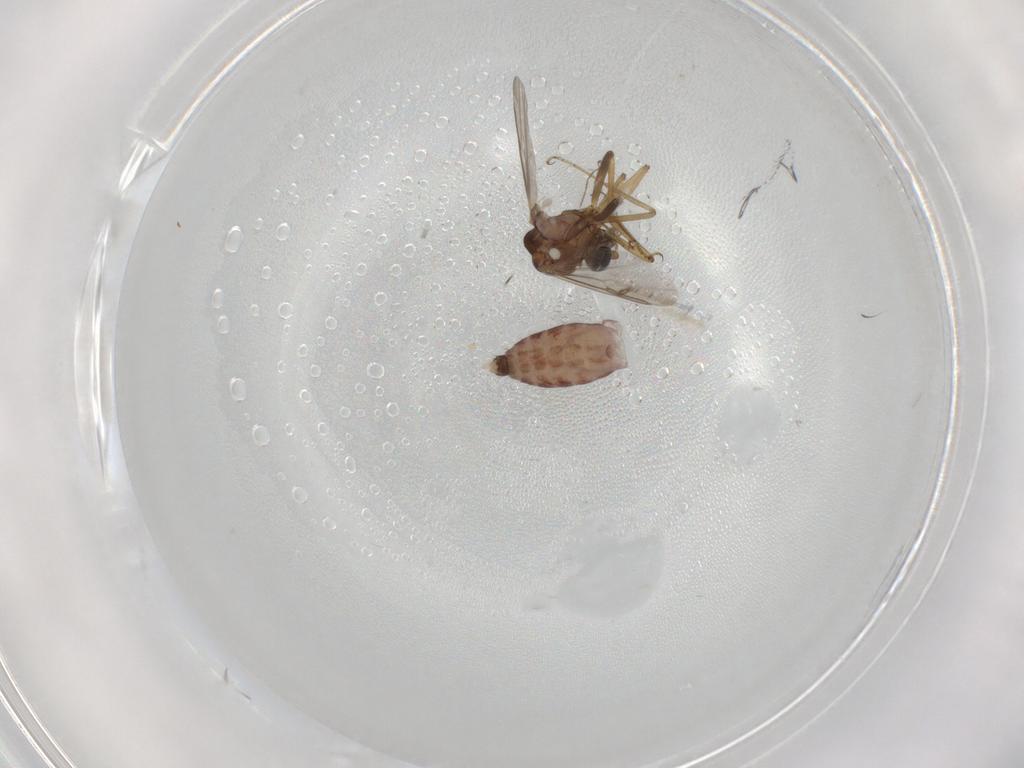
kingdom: Animalia
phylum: Arthropoda
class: Insecta
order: Diptera
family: Ceratopogonidae
